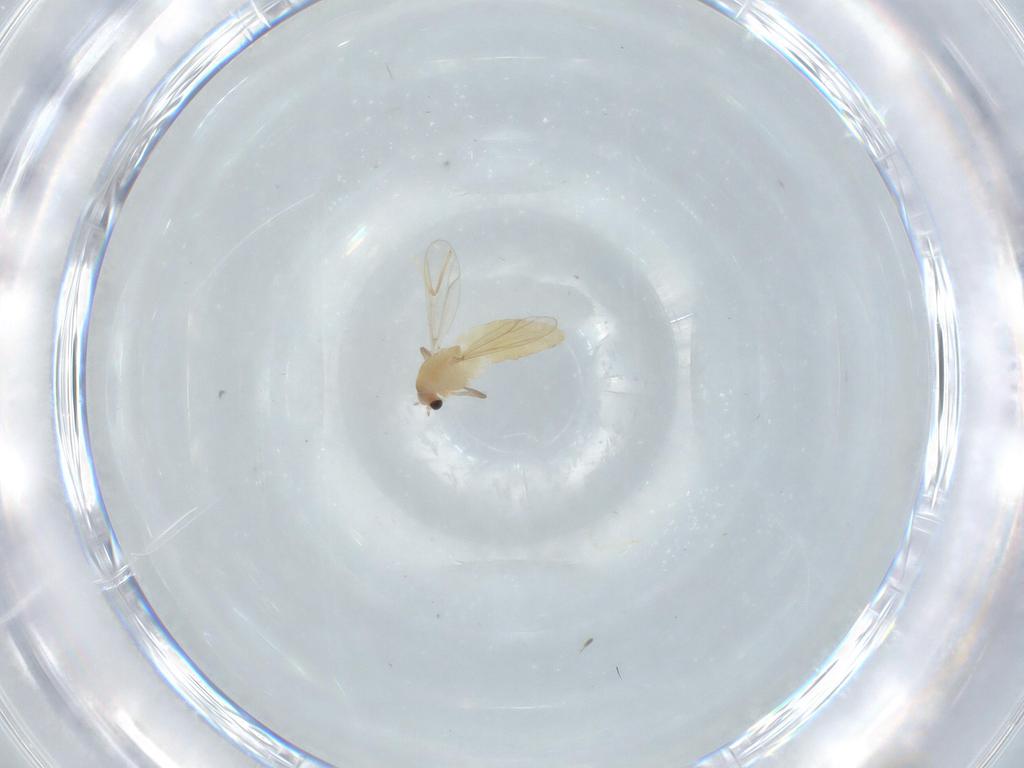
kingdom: Animalia
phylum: Arthropoda
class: Insecta
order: Diptera
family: Chironomidae
